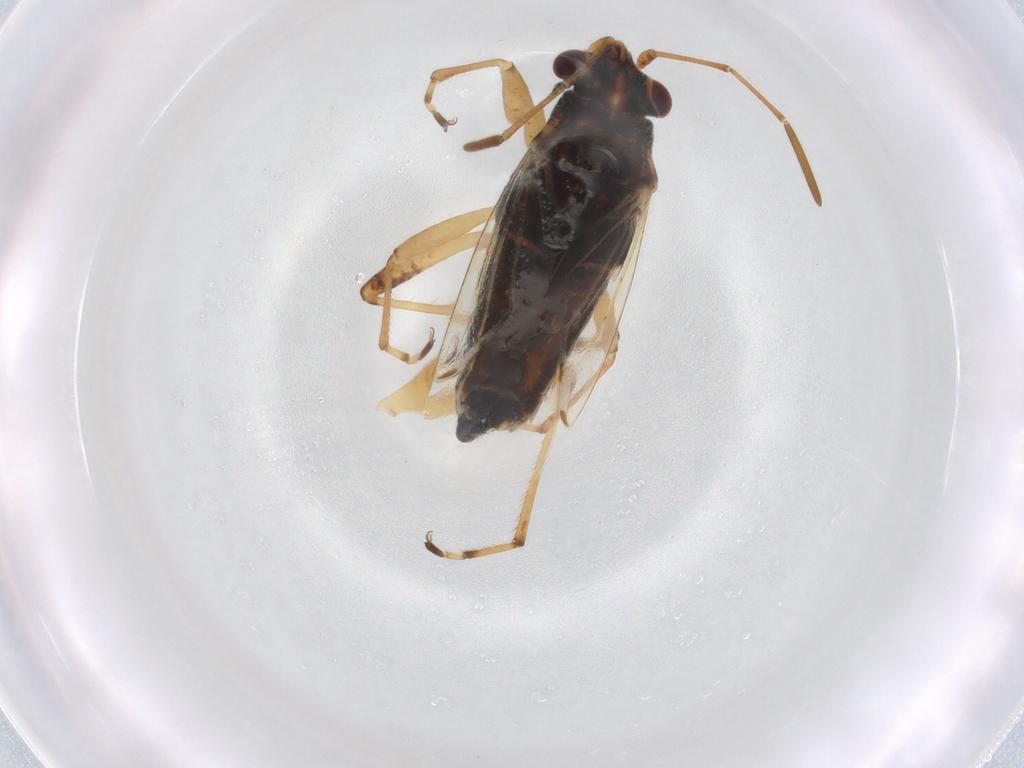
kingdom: Animalia
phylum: Arthropoda
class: Insecta
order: Hemiptera
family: Lygaeidae
